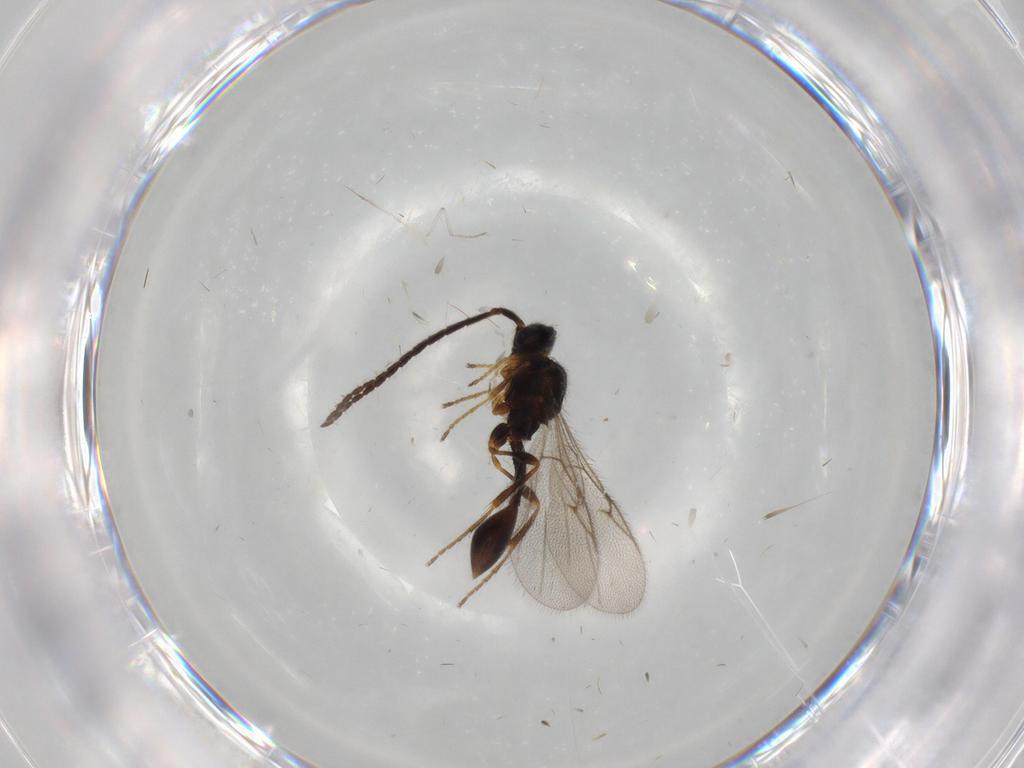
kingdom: Animalia
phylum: Arthropoda
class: Insecta
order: Hymenoptera
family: Diapriidae
